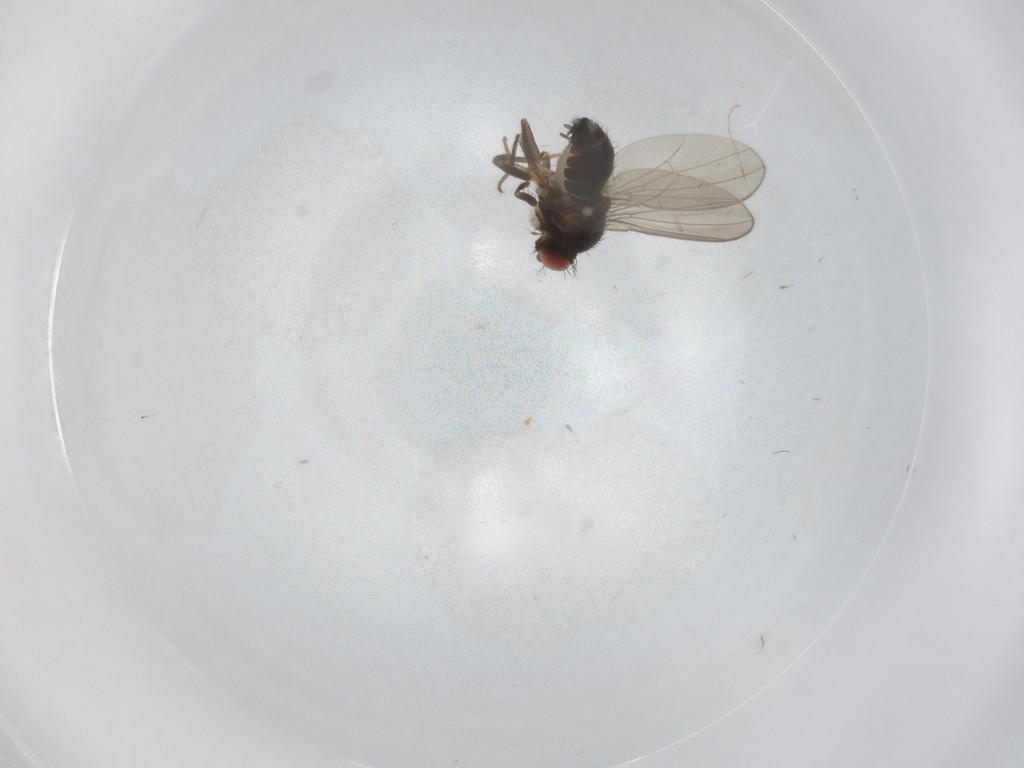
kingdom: Animalia
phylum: Arthropoda
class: Insecta
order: Diptera
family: Drosophilidae
